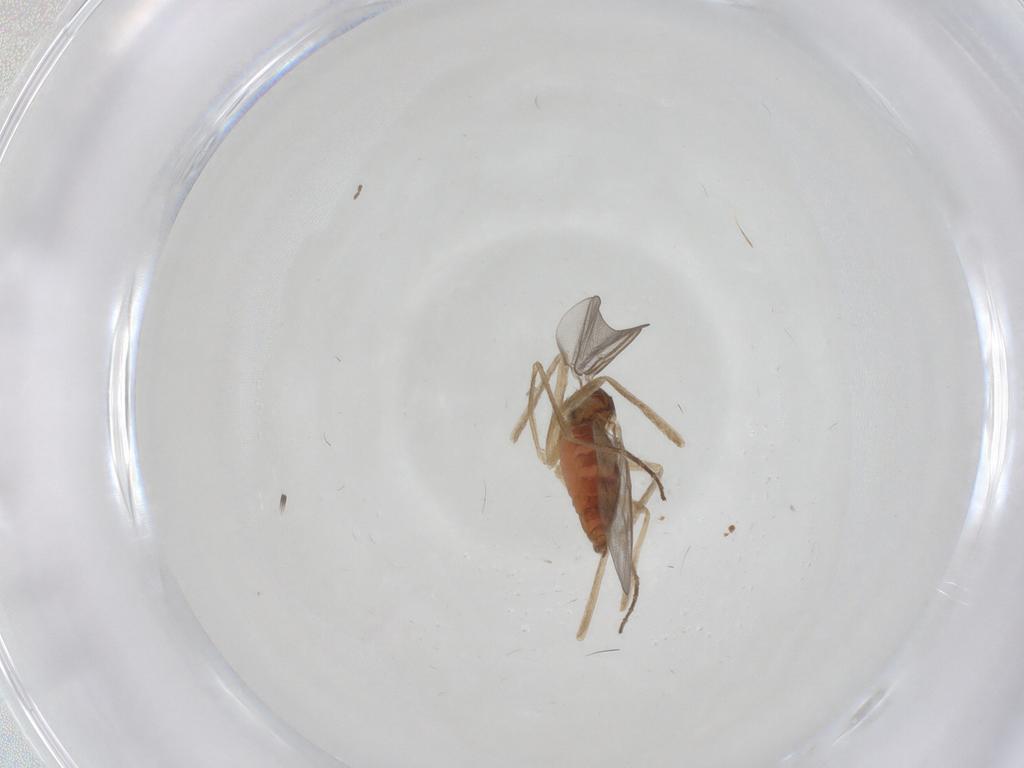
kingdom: Animalia
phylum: Arthropoda
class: Insecta
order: Diptera
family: Cecidomyiidae
